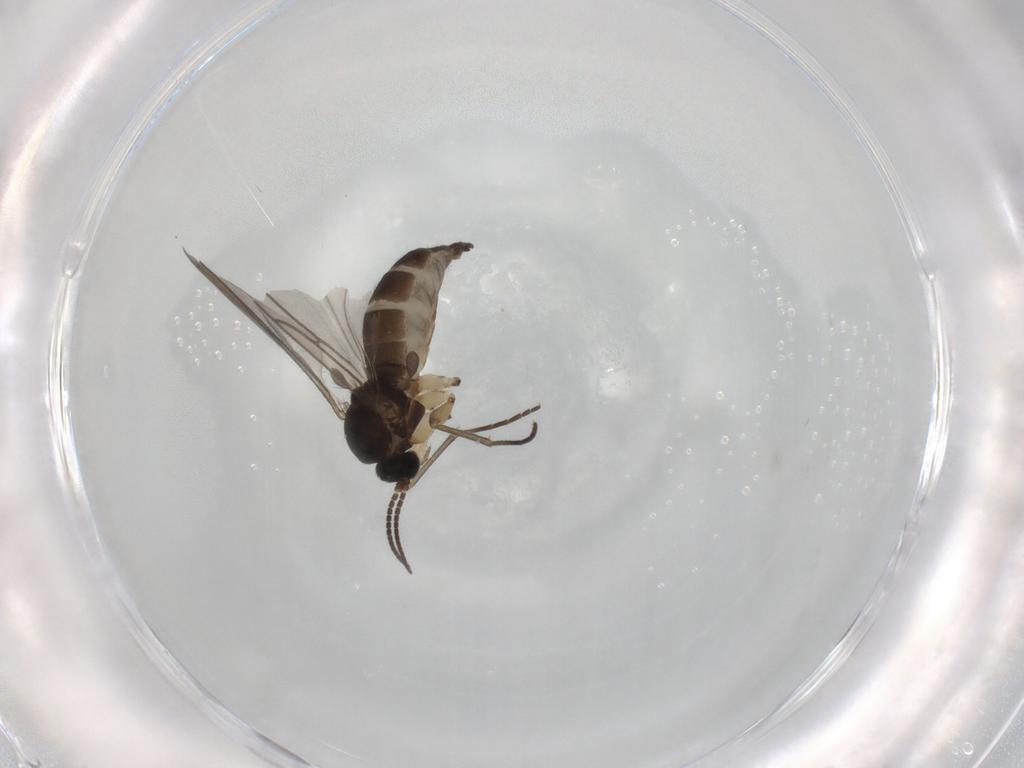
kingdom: Animalia
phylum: Arthropoda
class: Insecta
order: Diptera
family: Sciaridae
